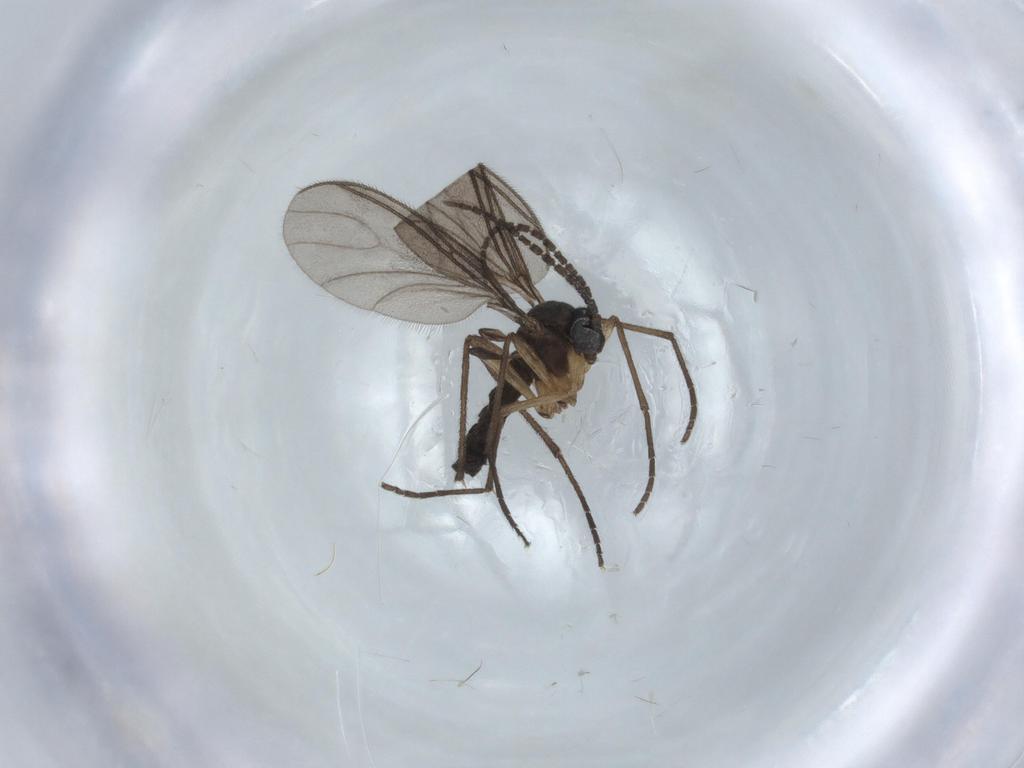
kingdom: Animalia
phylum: Arthropoda
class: Insecta
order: Diptera
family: Sciaridae
